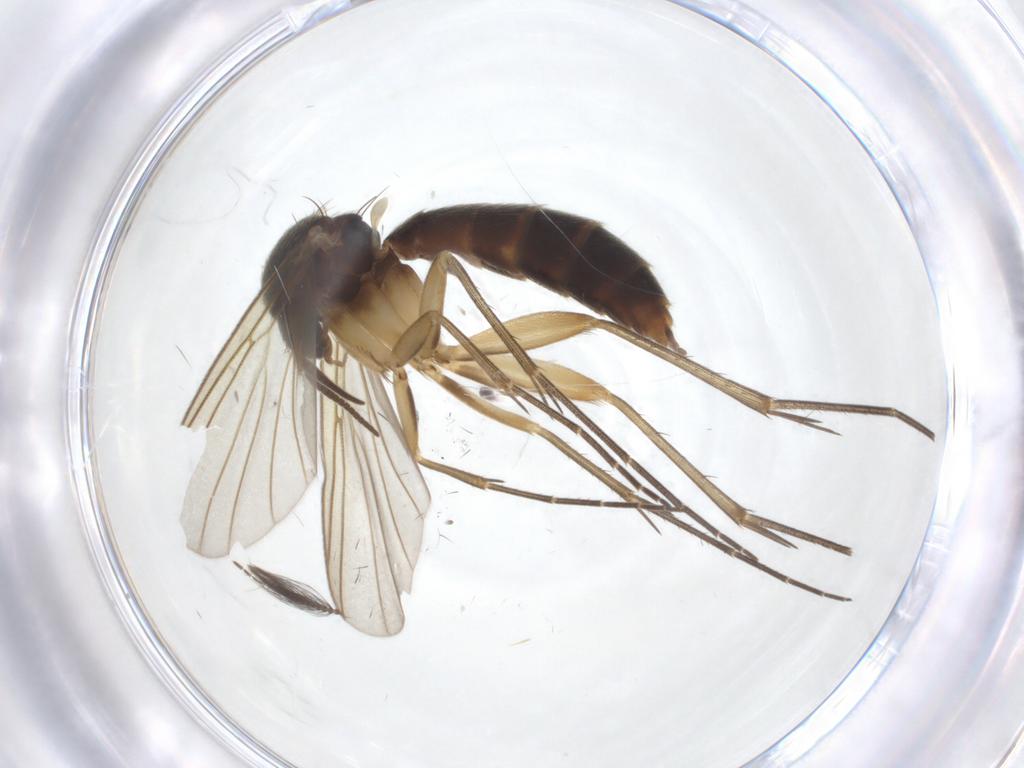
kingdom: Animalia
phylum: Arthropoda
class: Insecta
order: Diptera
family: Ceratopogonidae
